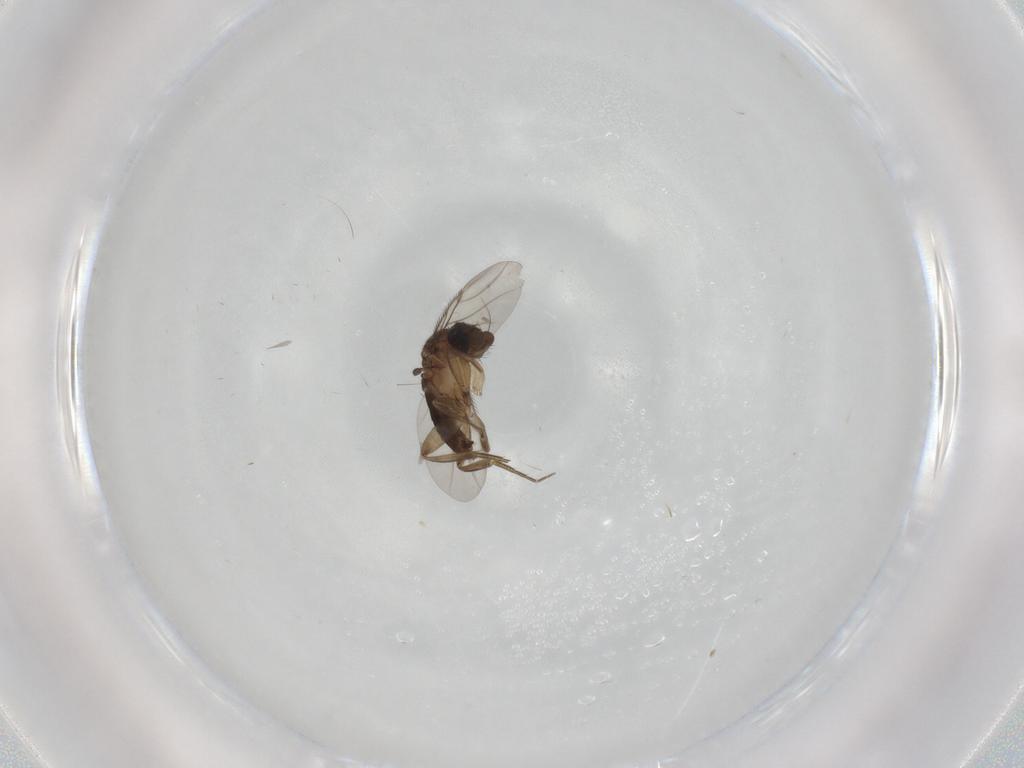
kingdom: Animalia
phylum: Arthropoda
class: Insecta
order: Diptera
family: Phoridae
